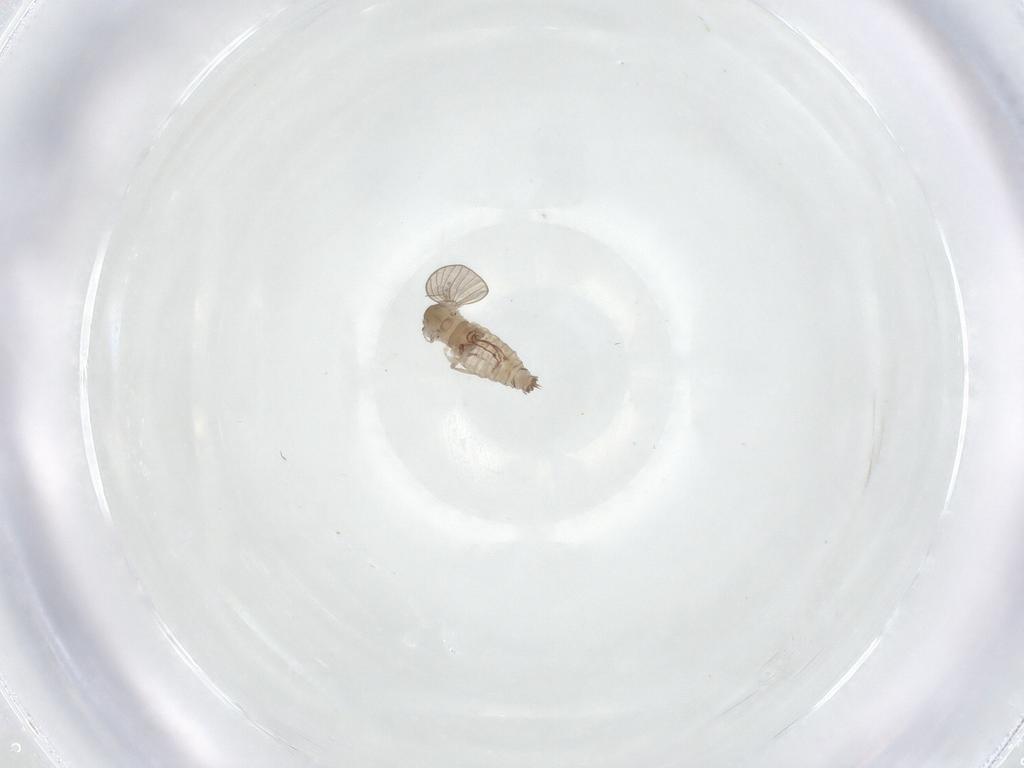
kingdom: Animalia
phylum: Arthropoda
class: Insecta
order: Diptera
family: Psychodidae
